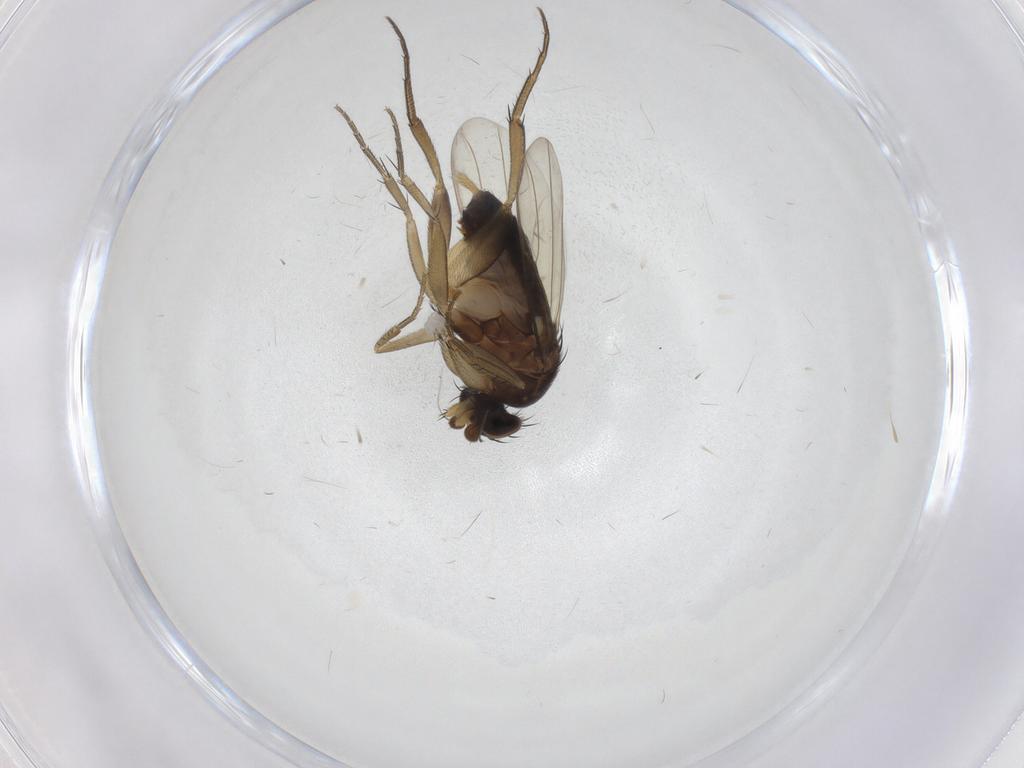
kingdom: Animalia
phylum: Arthropoda
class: Insecta
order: Diptera
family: Phoridae
